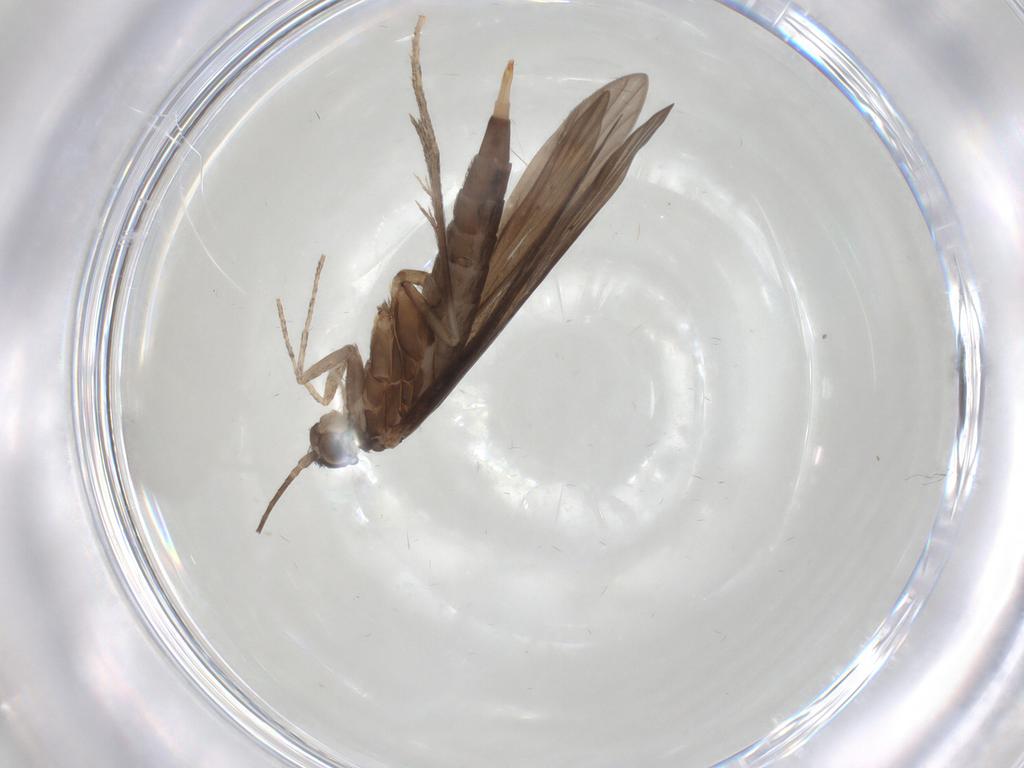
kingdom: Animalia
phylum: Arthropoda
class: Insecta
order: Trichoptera
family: Xiphocentronidae
